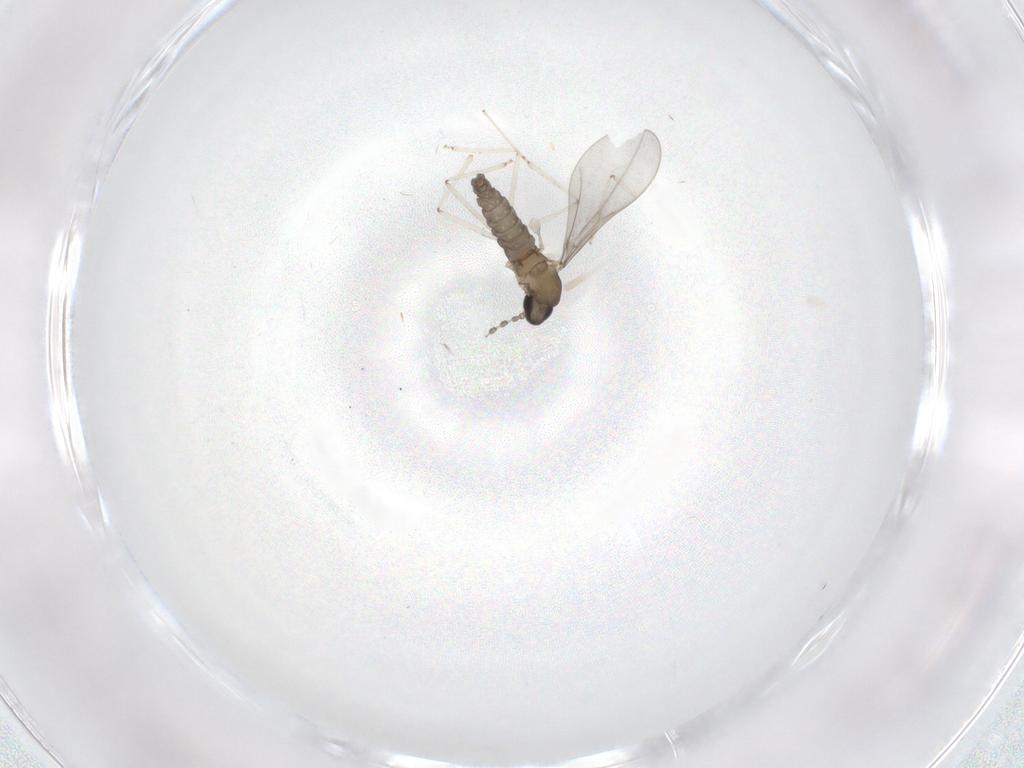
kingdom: Animalia
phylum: Arthropoda
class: Insecta
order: Diptera
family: Cecidomyiidae
